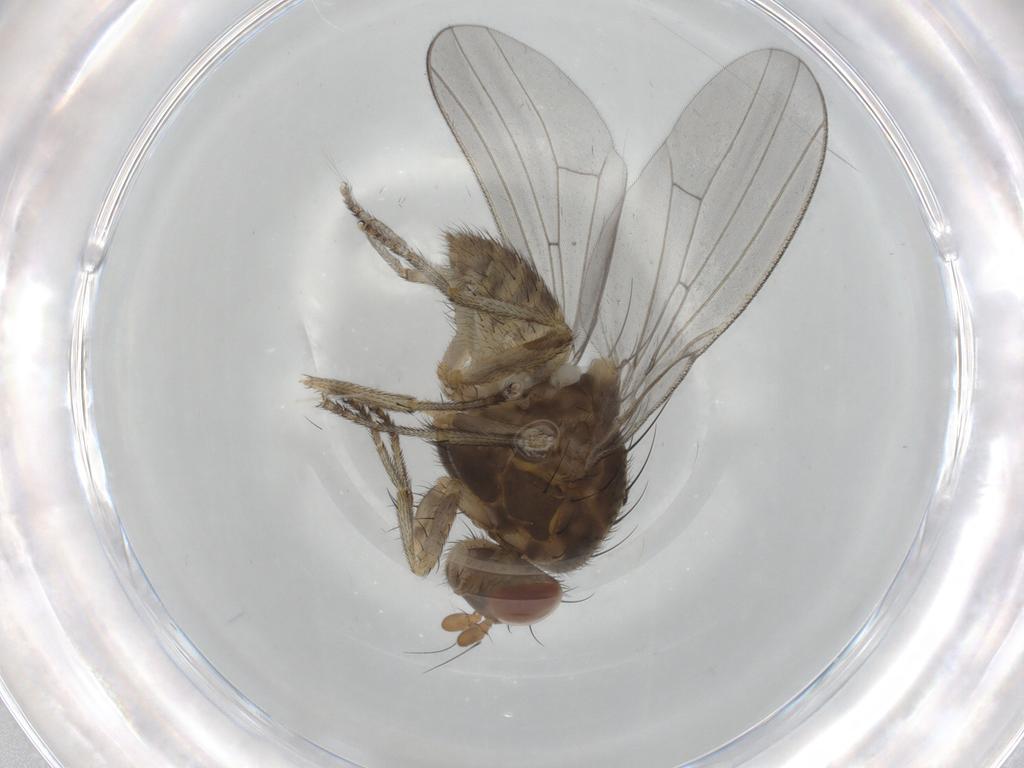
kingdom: Animalia
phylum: Arthropoda
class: Insecta
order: Diptera
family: Lauxaniidae
